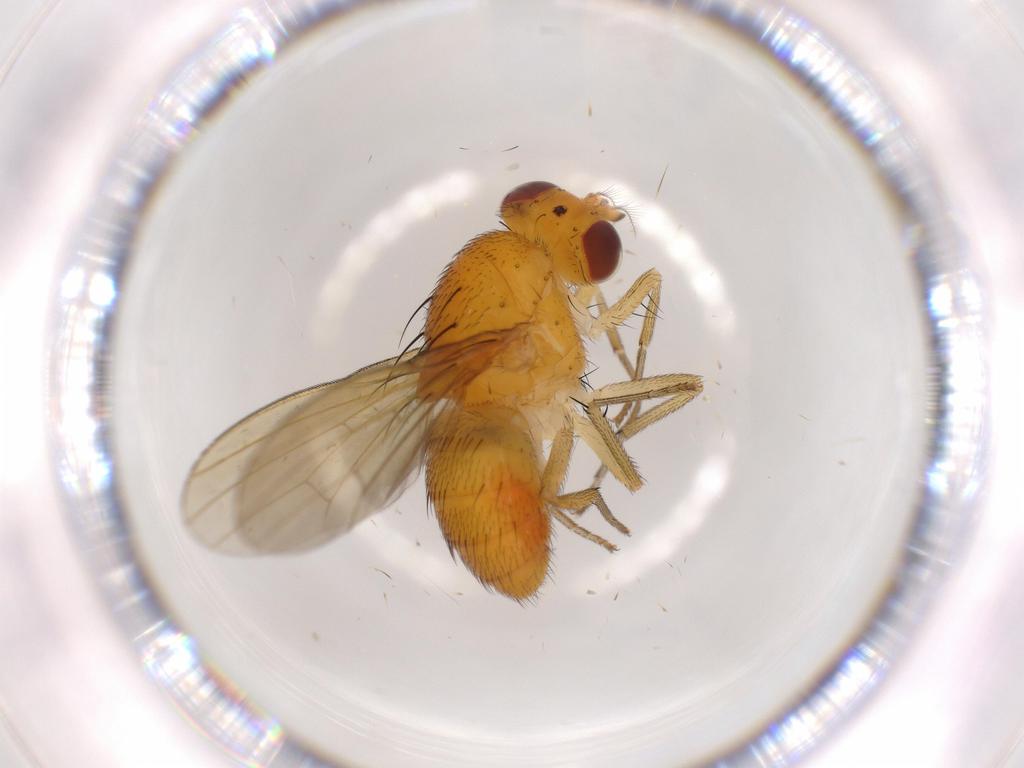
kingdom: Animalia
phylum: Arthropoda
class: Insecta
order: Diptera
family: Lauxaniidae
